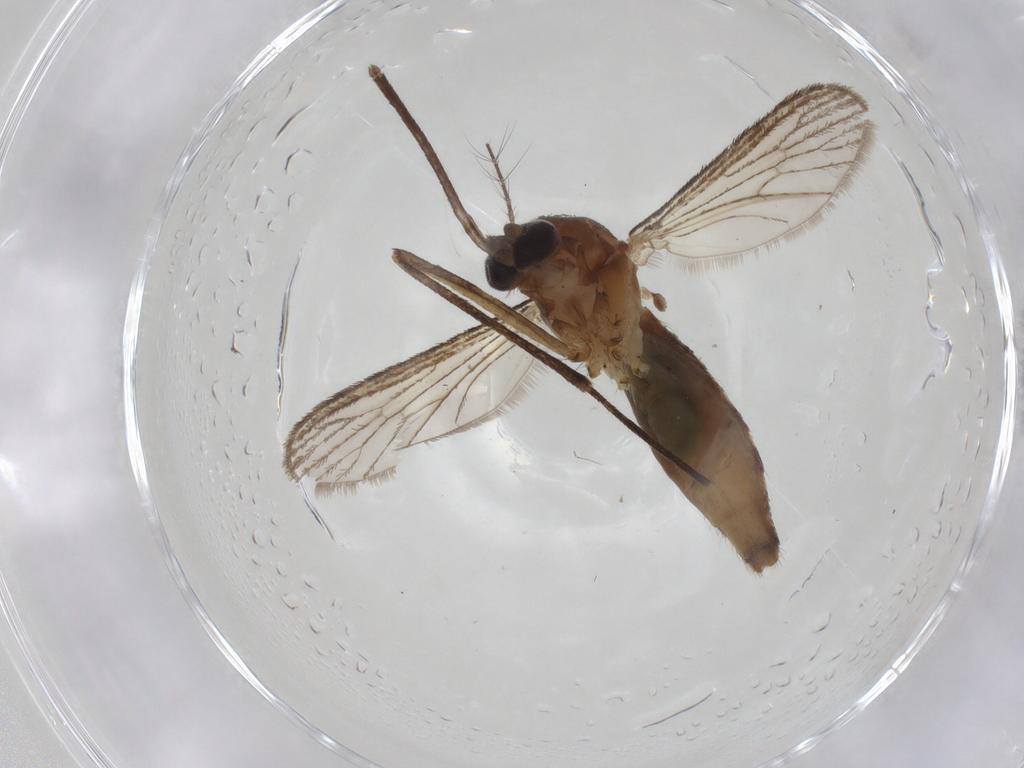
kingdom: Animalia
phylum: Arthropoda
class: Insecta
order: Diptera
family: Culicidae
